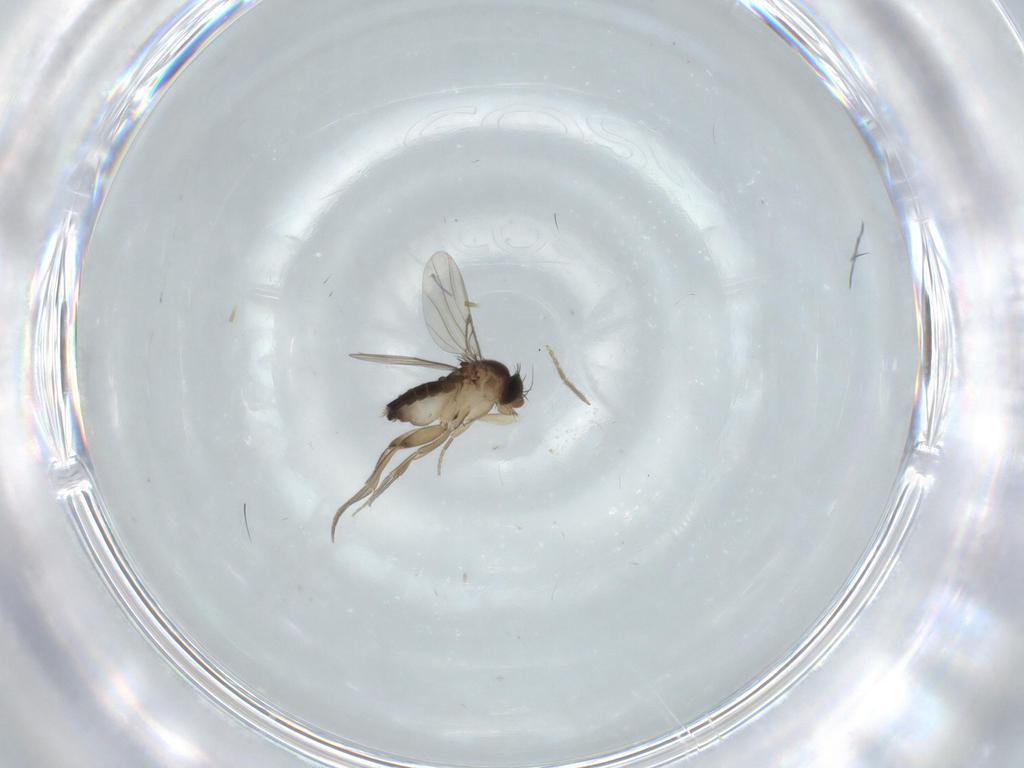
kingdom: Animalia
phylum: Arthropoda
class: Insecta
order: Diptera
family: Phoridae
